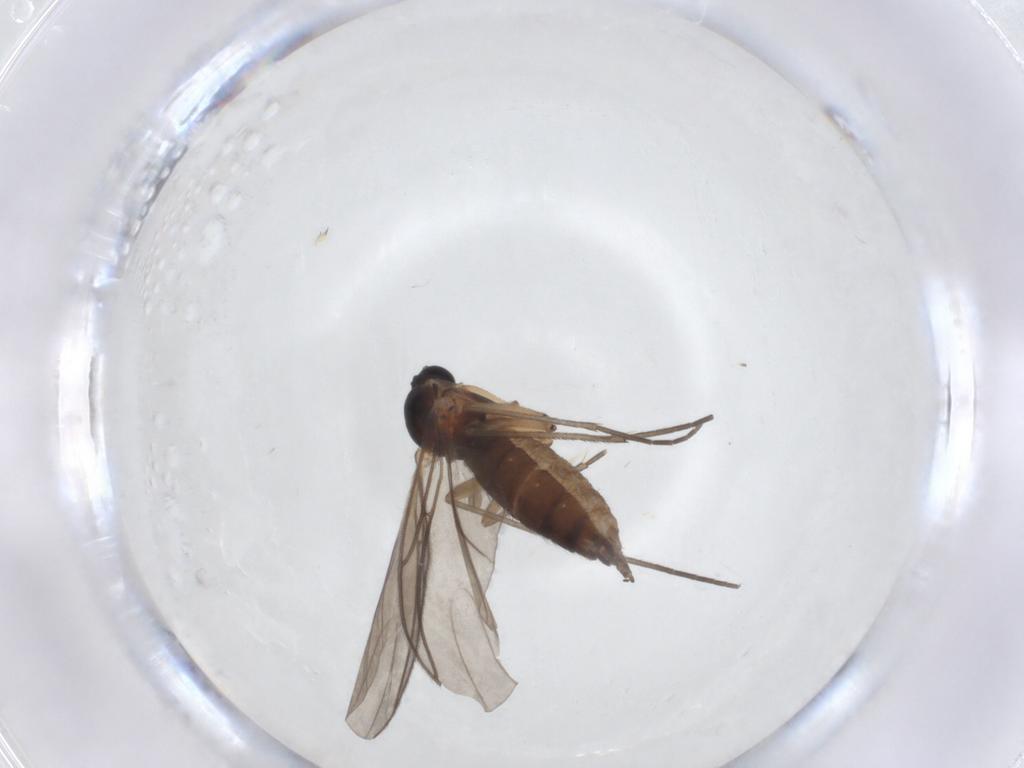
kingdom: Animalia
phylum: Arthropoda
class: Insecta
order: Diptera
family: Sciaridae
